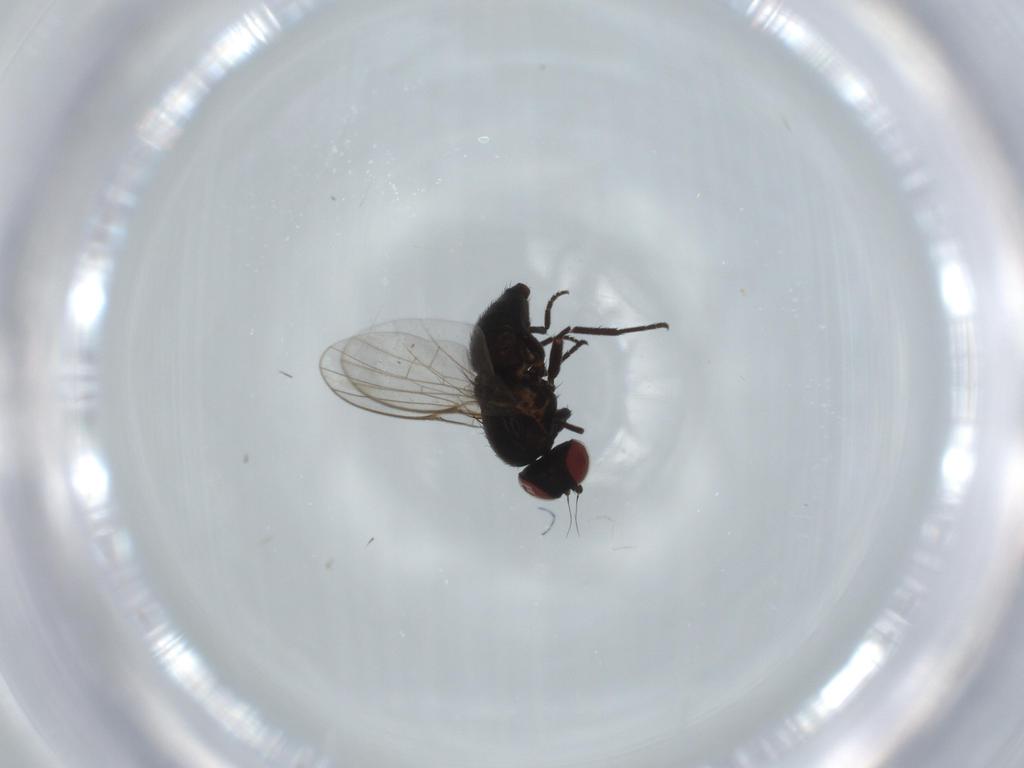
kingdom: Animalia
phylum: Arthropoda
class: Insecta
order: Diptera
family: Agromyzidae
